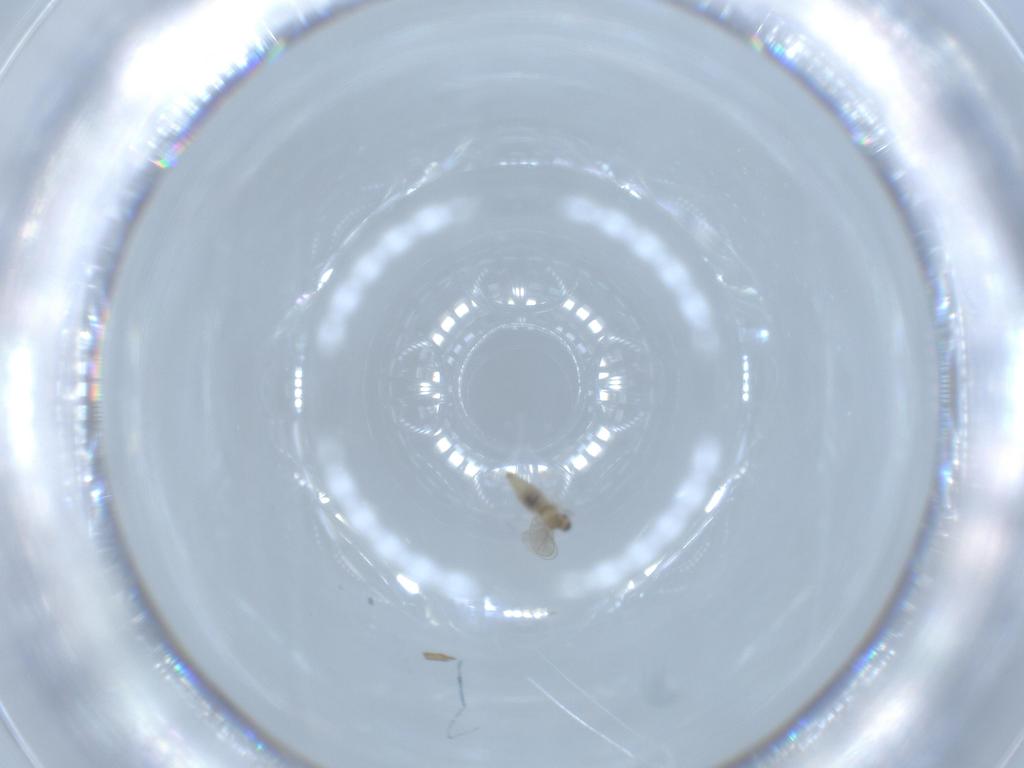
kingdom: Animalia
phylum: Arthropoda
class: Insecta
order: Diptera
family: Cecidomyiidae
